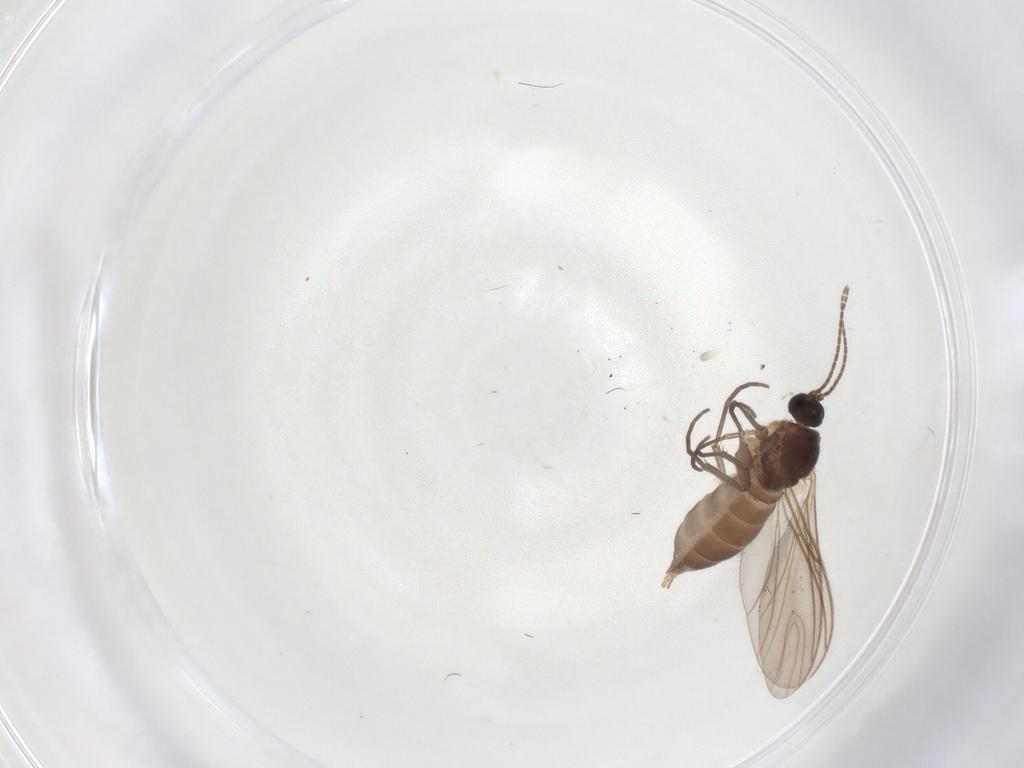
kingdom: Animalia
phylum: Arthropoda
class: Insecta
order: Diptera
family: Sciaridae
